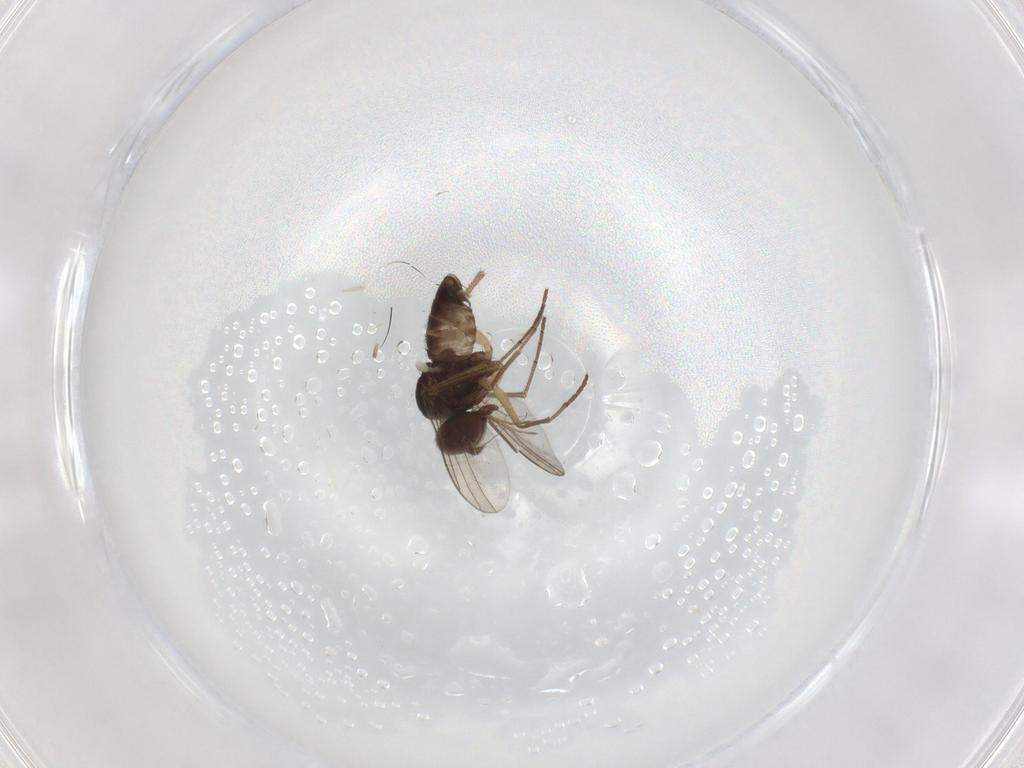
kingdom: Animalia
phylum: Arthropoda
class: Insecta
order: Diptera
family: Dolichopodidae
